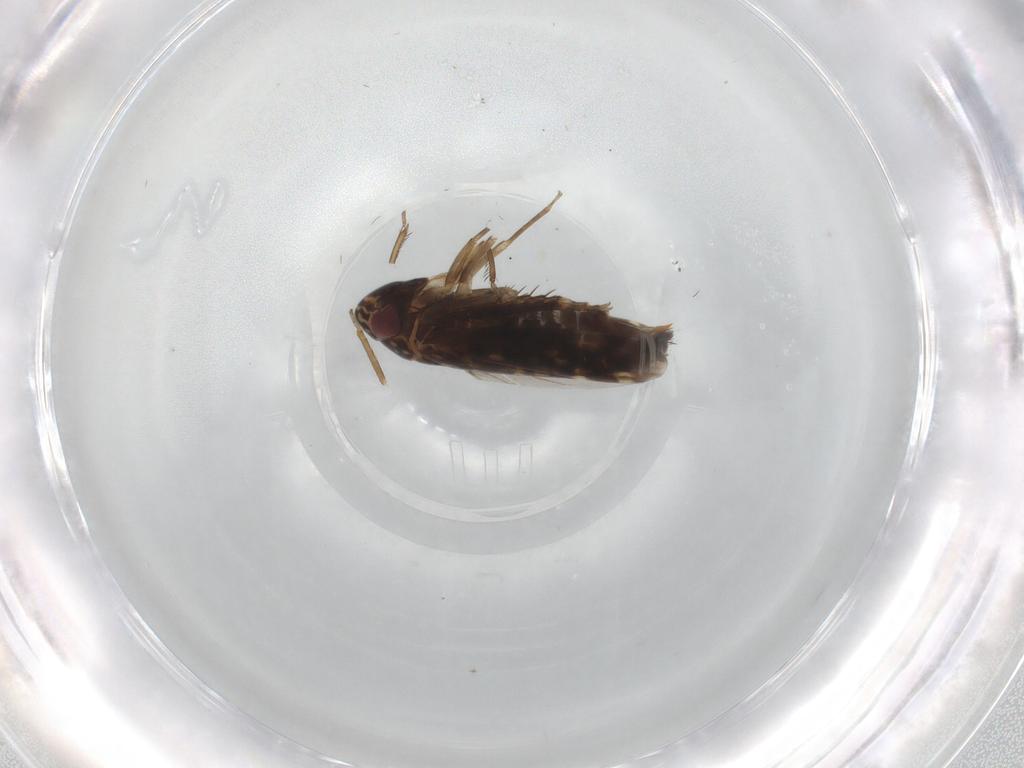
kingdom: Animalia
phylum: Arthropoda
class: Insecta
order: Hemiptera
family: Cicadellidae
